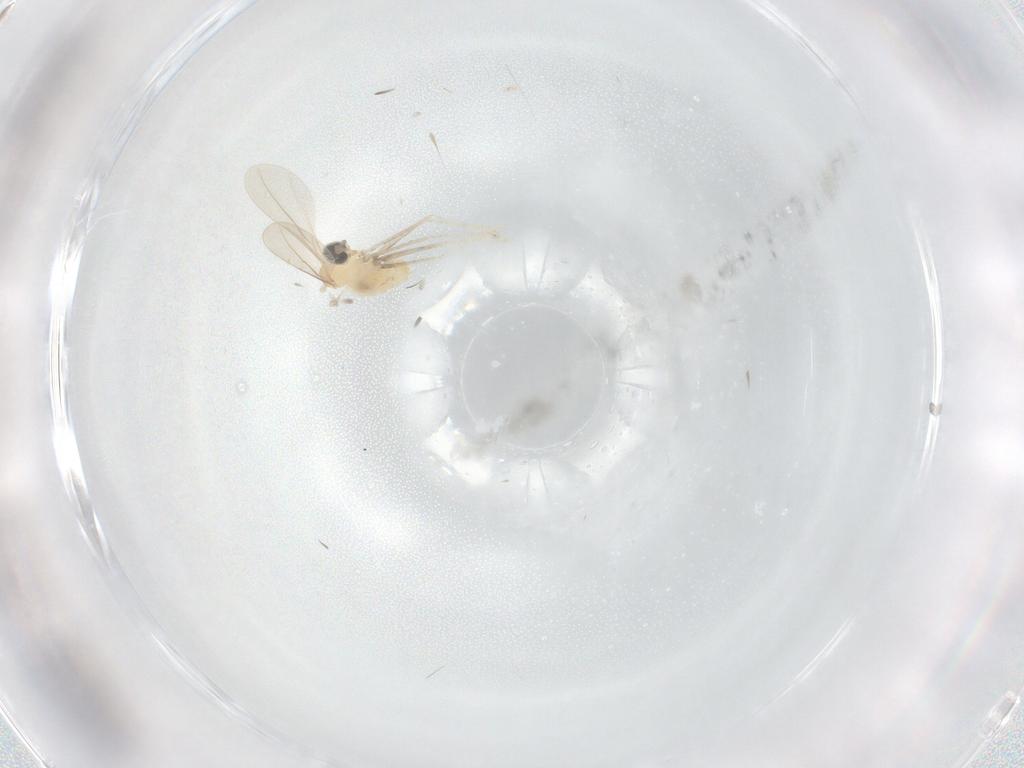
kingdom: Animalia
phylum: Arthropoda
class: Insecta
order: Diptera
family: Cecidomyiidae
